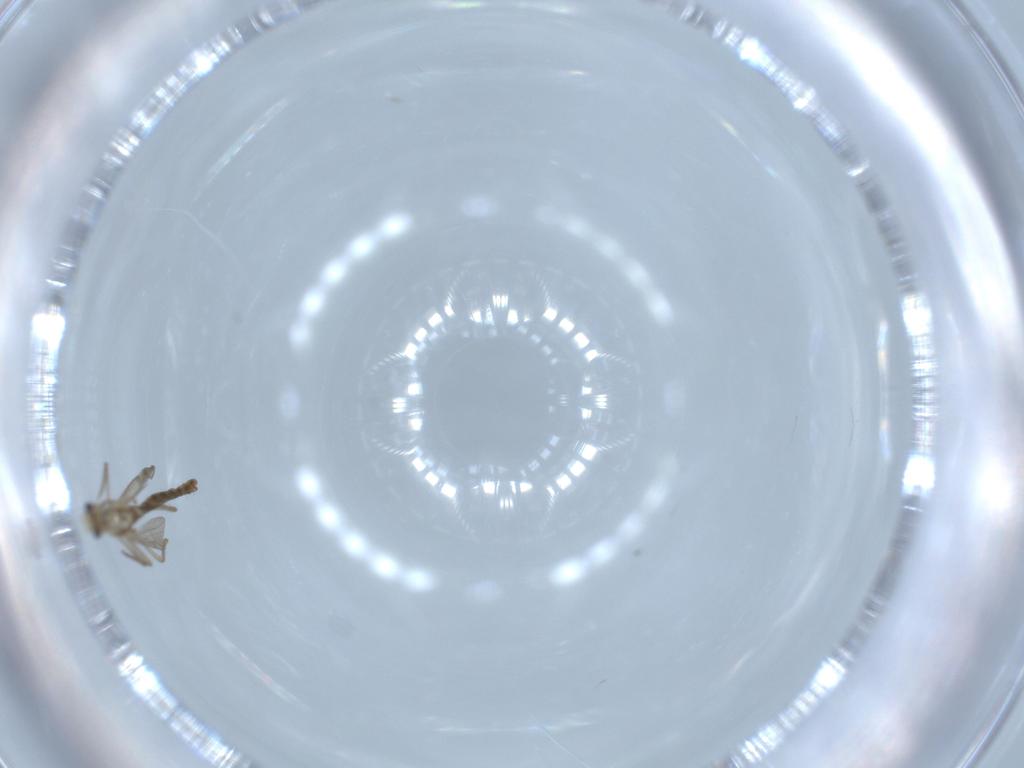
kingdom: Animalia
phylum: Arthropoda
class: Insecta
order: Diptera
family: Chironomidae
